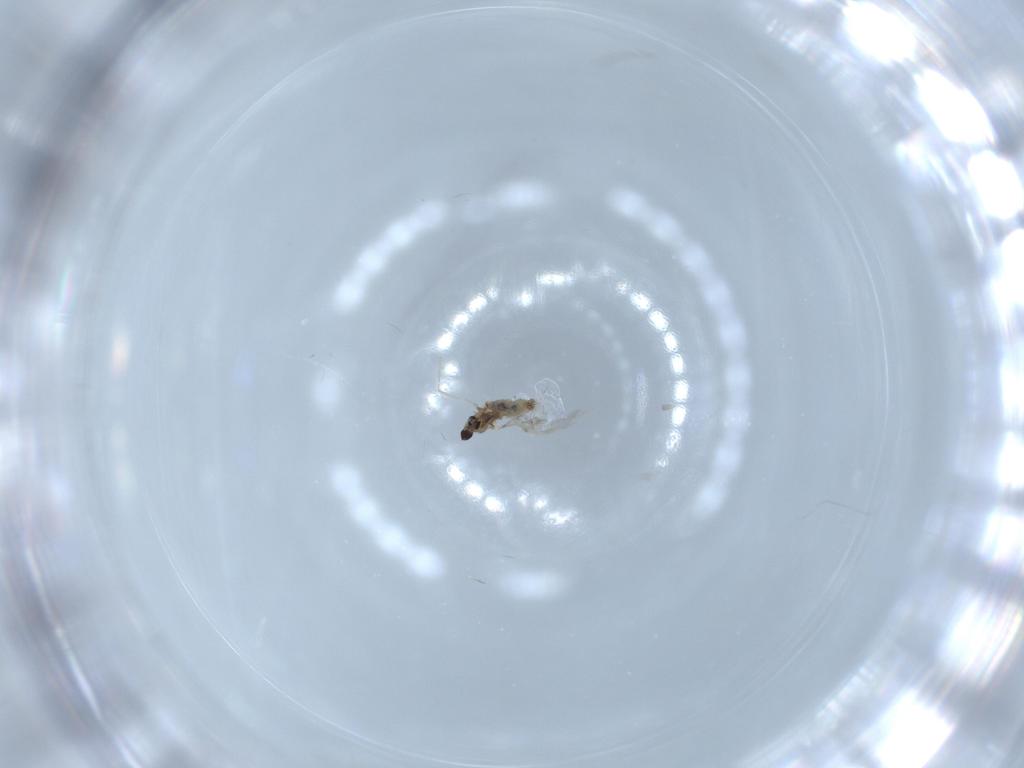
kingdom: Animalia
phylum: Arthropoda
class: Insecta
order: Diptera
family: Cecidomyiidae
